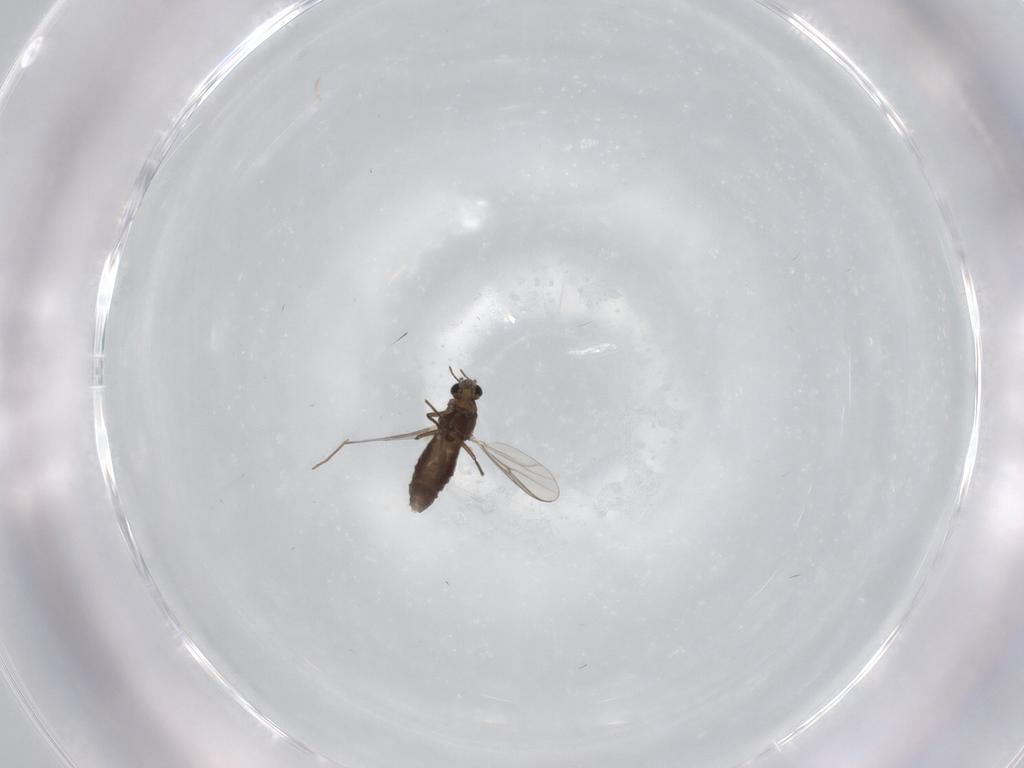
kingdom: Animalia
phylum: Arthropoda
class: Insecta
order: Diptera
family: Chironomidae
